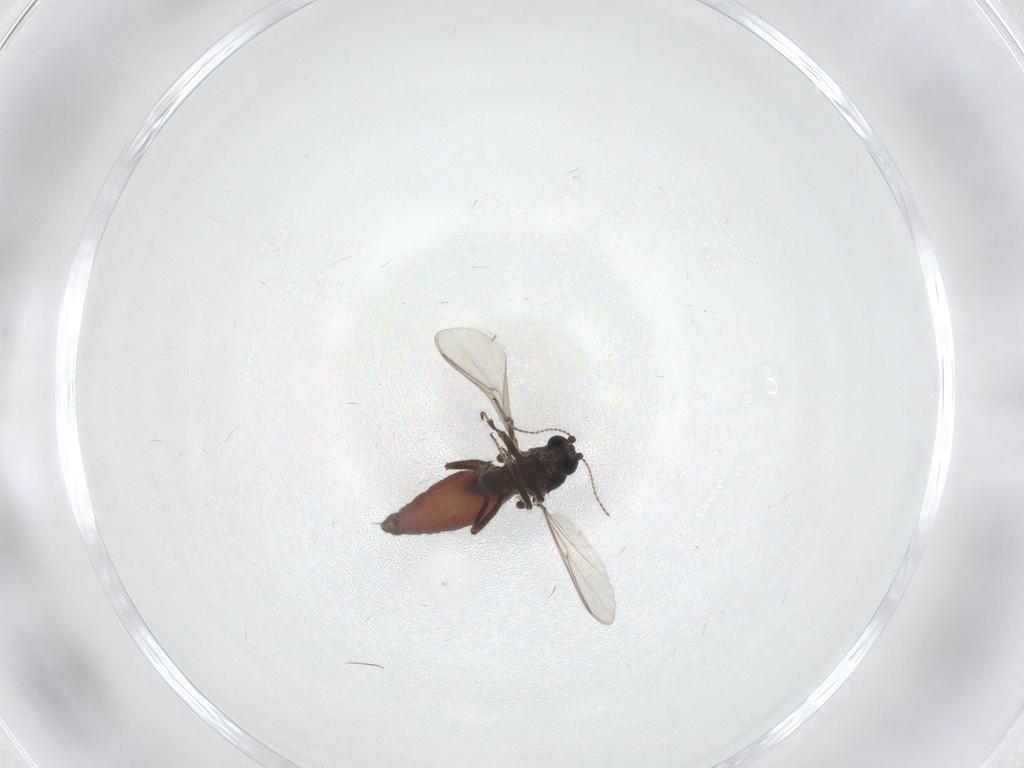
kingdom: Animalia
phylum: Arthropoda
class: Insecta
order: Diptera
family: Ceratopogonidae
